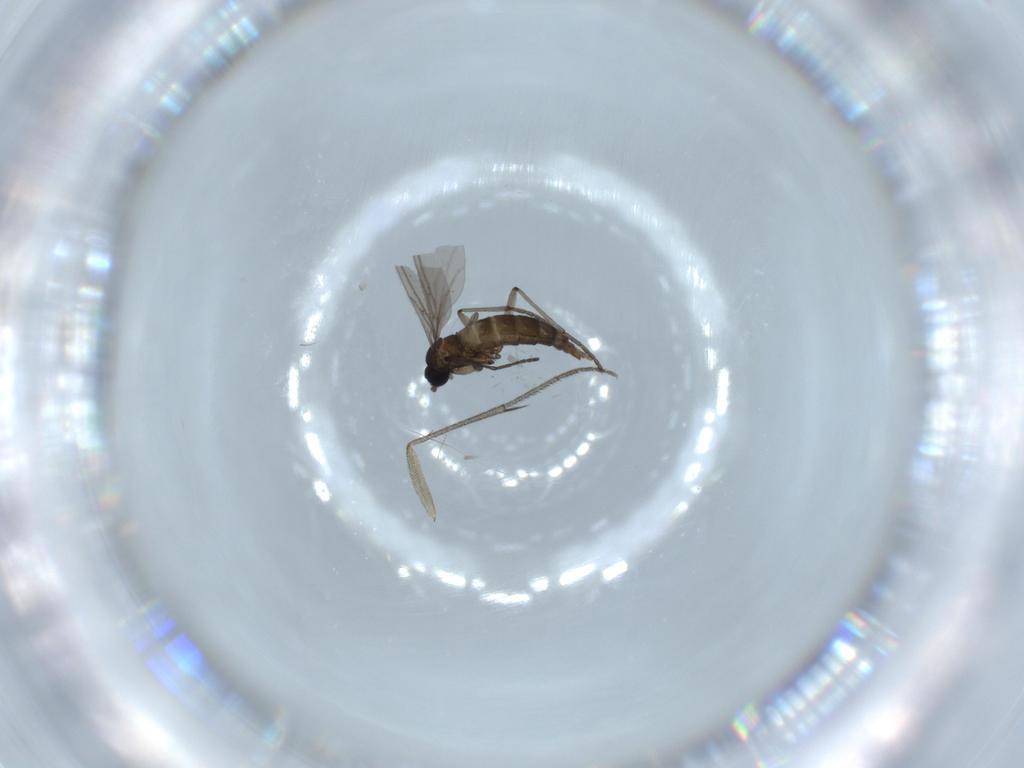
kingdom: Animalia
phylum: Arthropoda
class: Insecta
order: Diptera
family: Mycetophilidae
